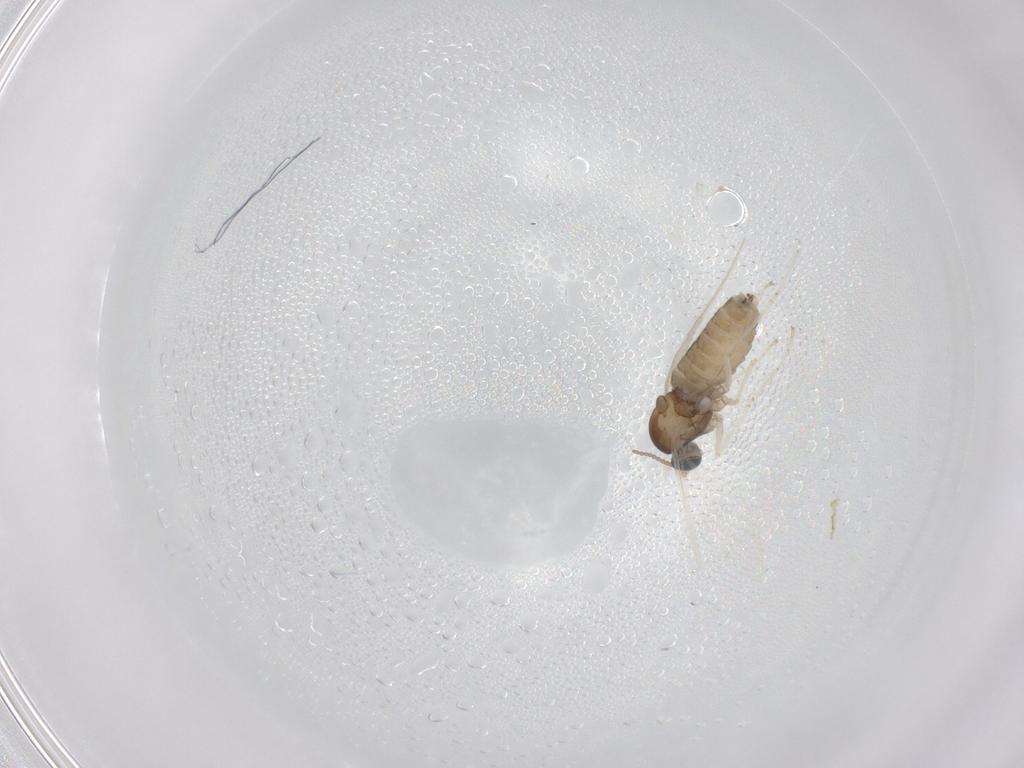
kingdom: Animalia
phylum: Arthropoda
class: Insecta
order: Diptera
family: Cecidomyiidae
